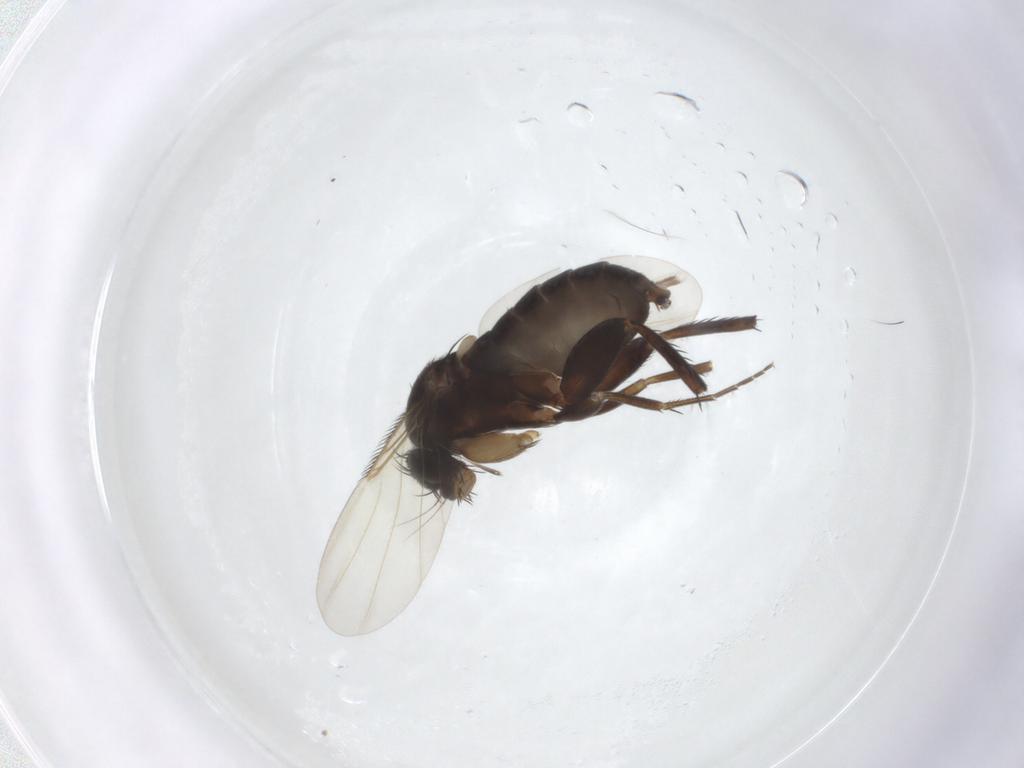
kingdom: Animalia
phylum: Arthropoda
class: Insecta
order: Diptera
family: Phoridae
